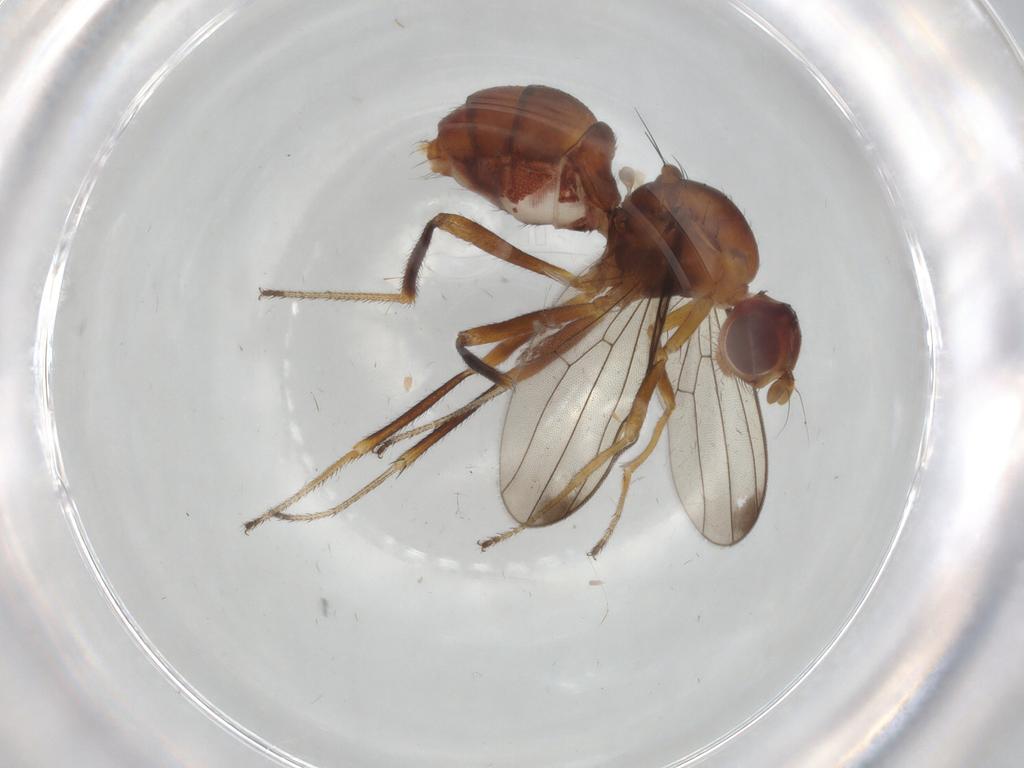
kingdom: Animalia
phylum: Arthropoda
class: Insecta
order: Diptera
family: Sepsidae
